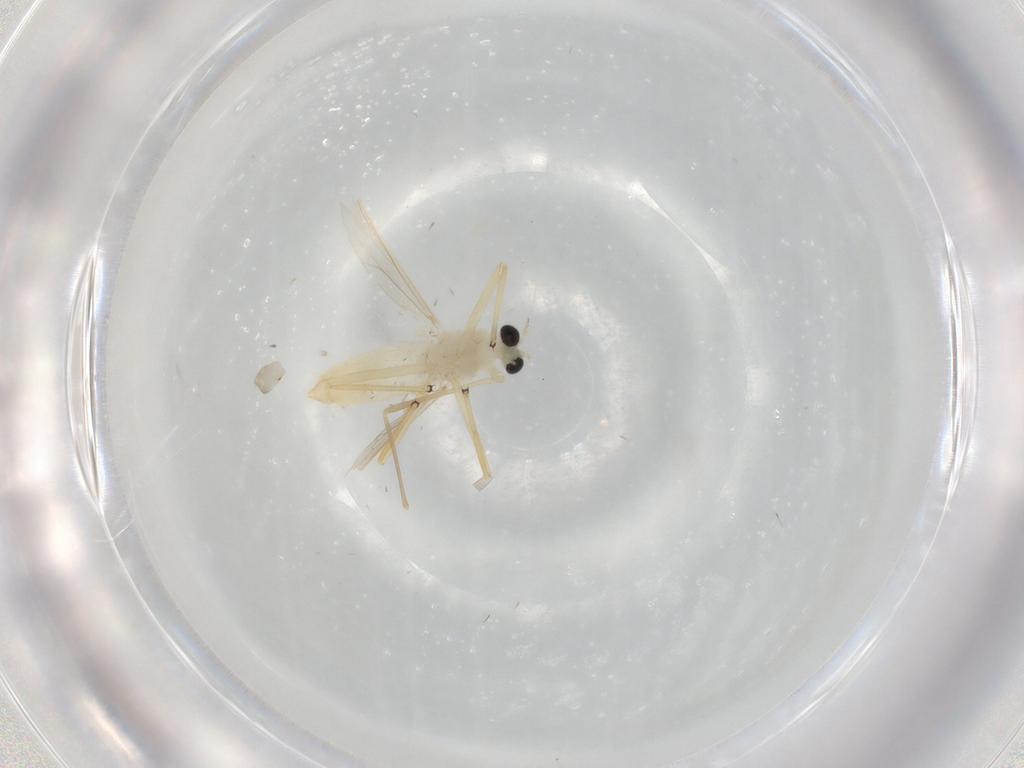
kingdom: Animalia
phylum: Arthropoda
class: Insecta
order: Diptera
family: Chironomidae
